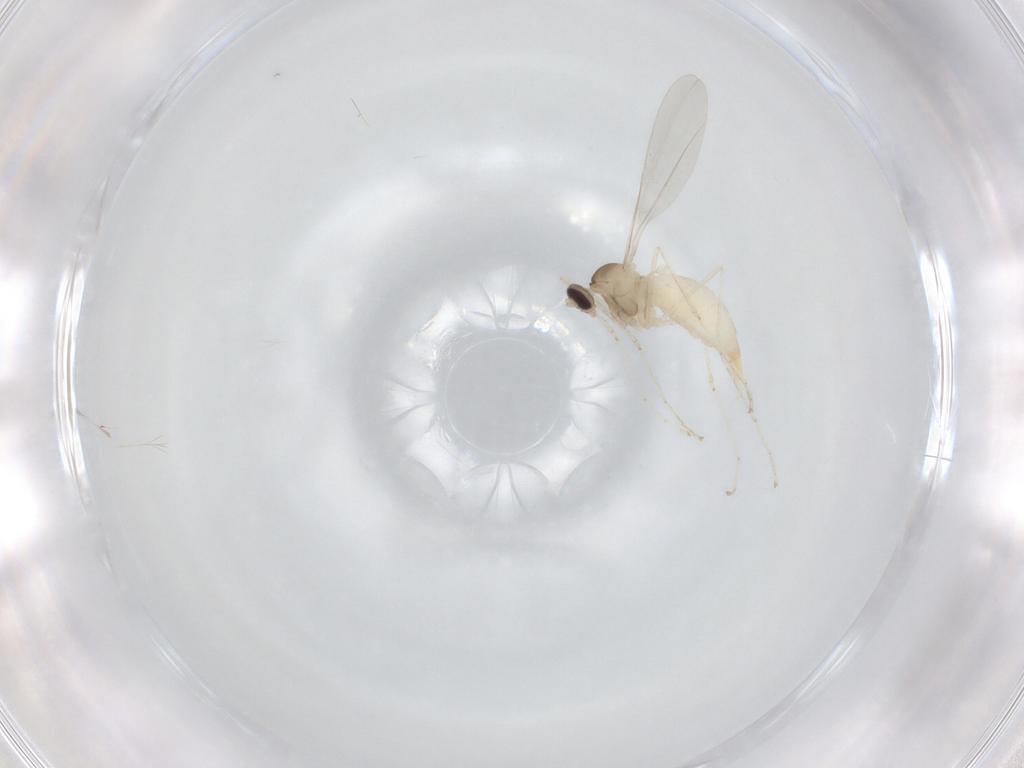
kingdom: Animalia
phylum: Arthropoda
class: Insecta
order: Diptera
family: Cecidomyiidae
